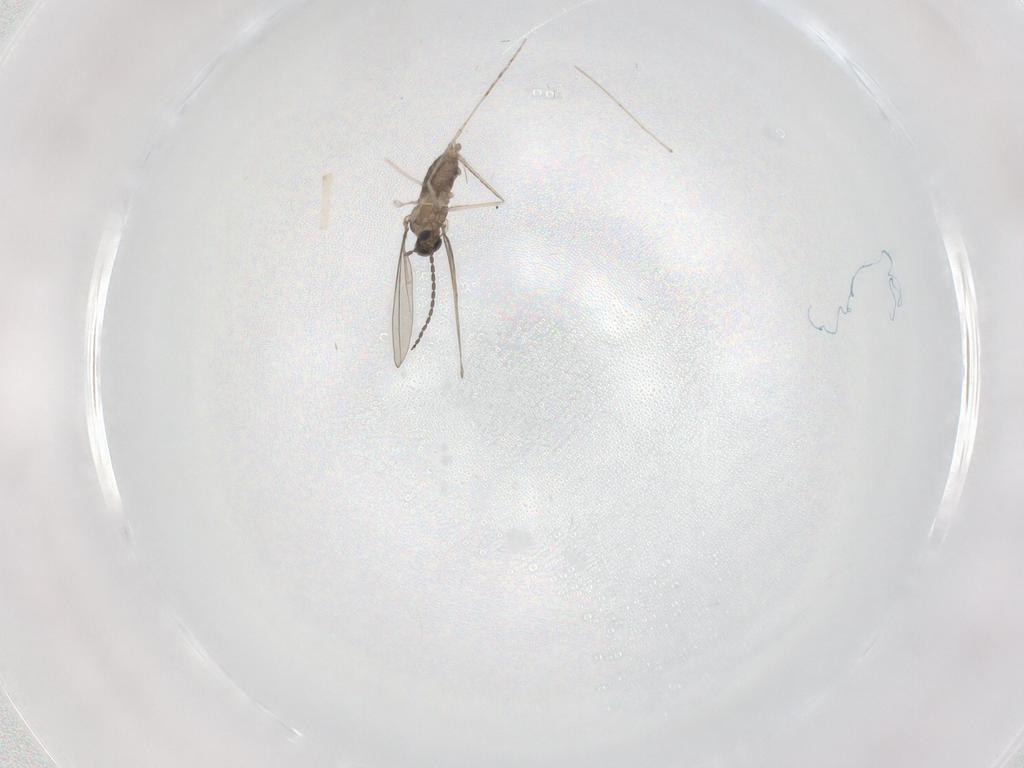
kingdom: Animalia
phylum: Arthropoda
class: Insecta
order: Diptera
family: Cecidomyiidae
